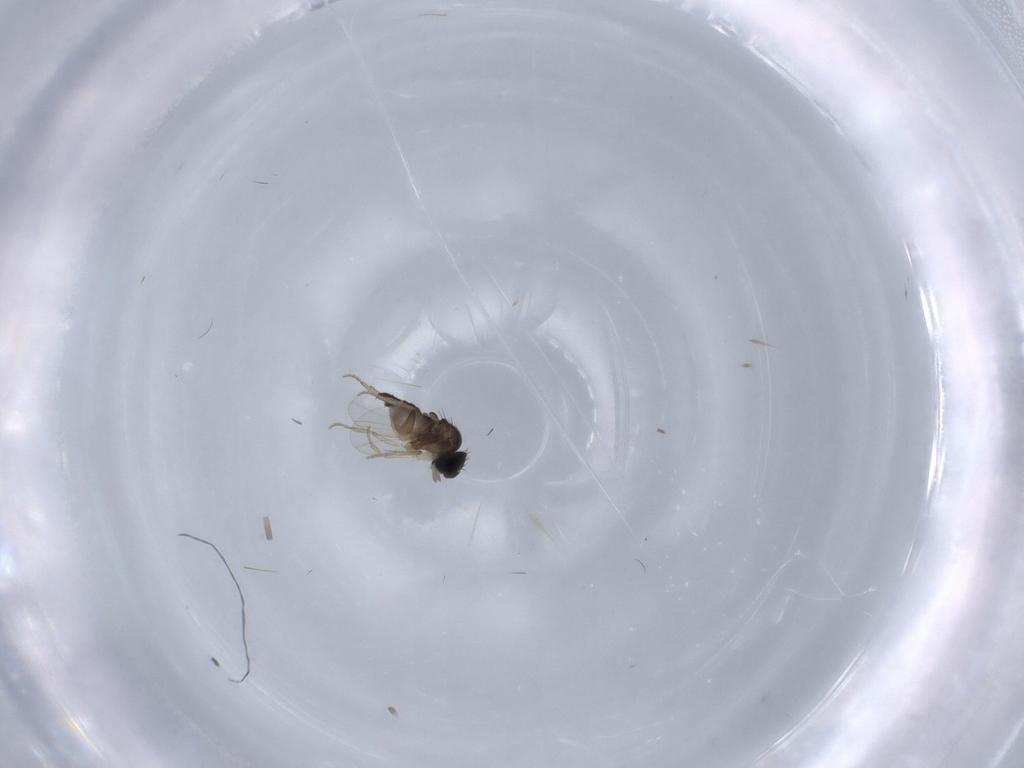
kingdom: Animalia
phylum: Arthropoda
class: Insecta
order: Diptera
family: Phoridae
